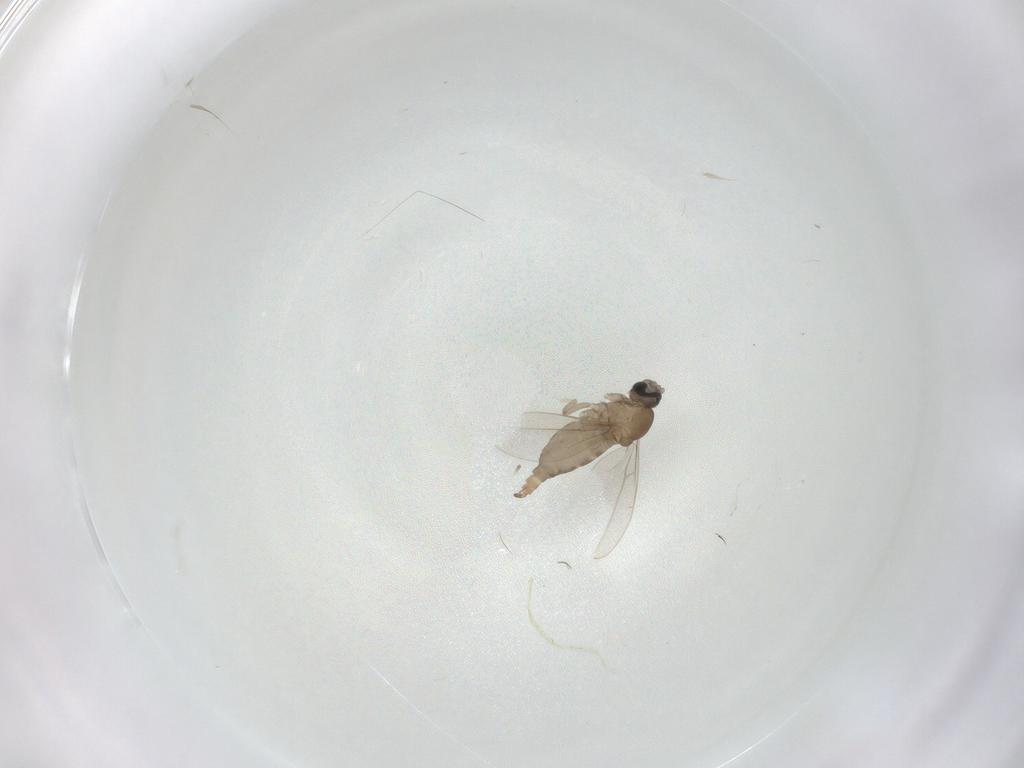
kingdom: Animalia
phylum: Arthropoda
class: Insecta
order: Diptera
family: Cecidomyiidae
